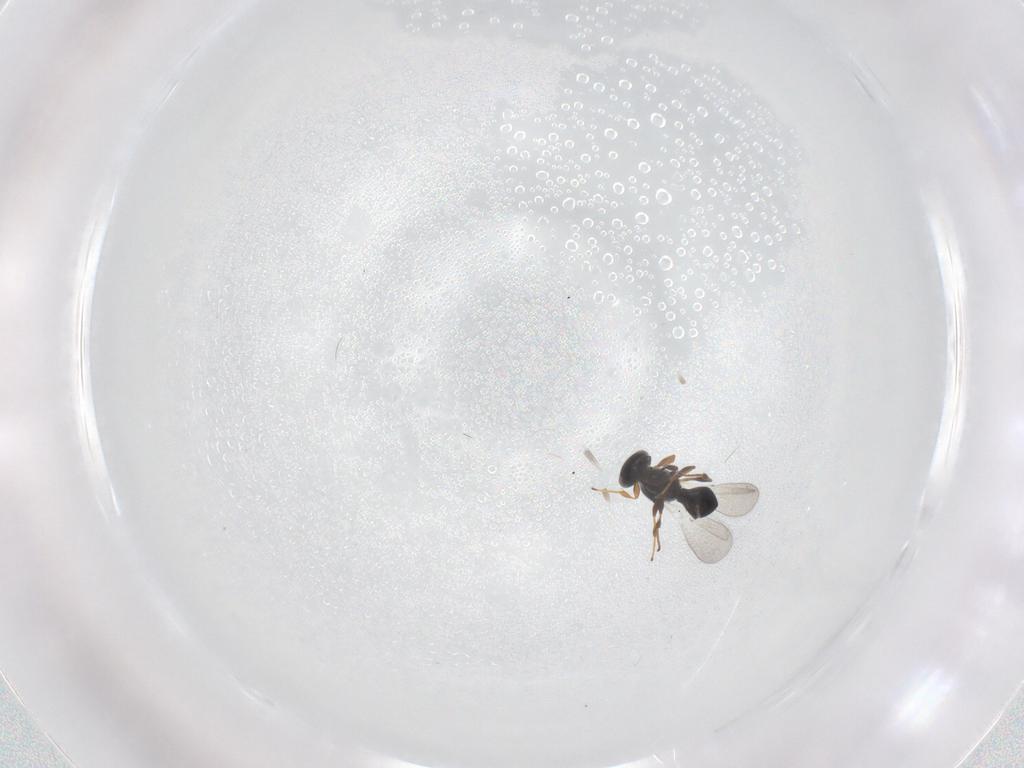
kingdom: Animalia
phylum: Arthropoda
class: Insecta
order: Hymenoptera
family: Platygastridae
